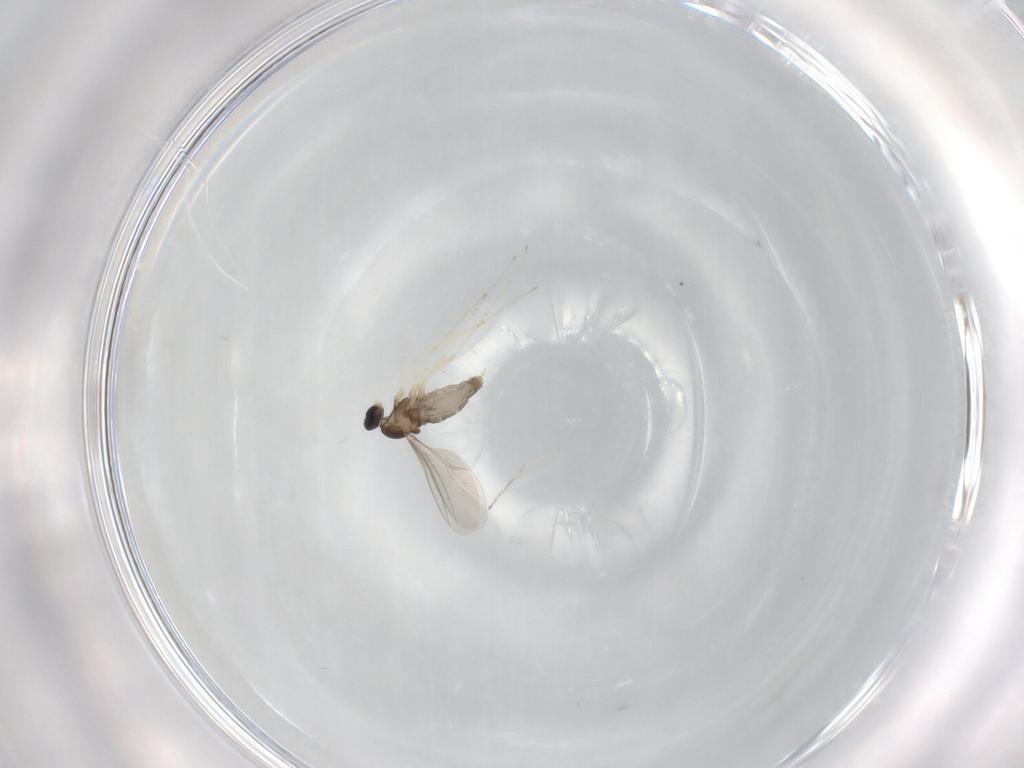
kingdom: Animalia
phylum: Arthropoda
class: Insecta
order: Diptera
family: Cecidomyiidae
